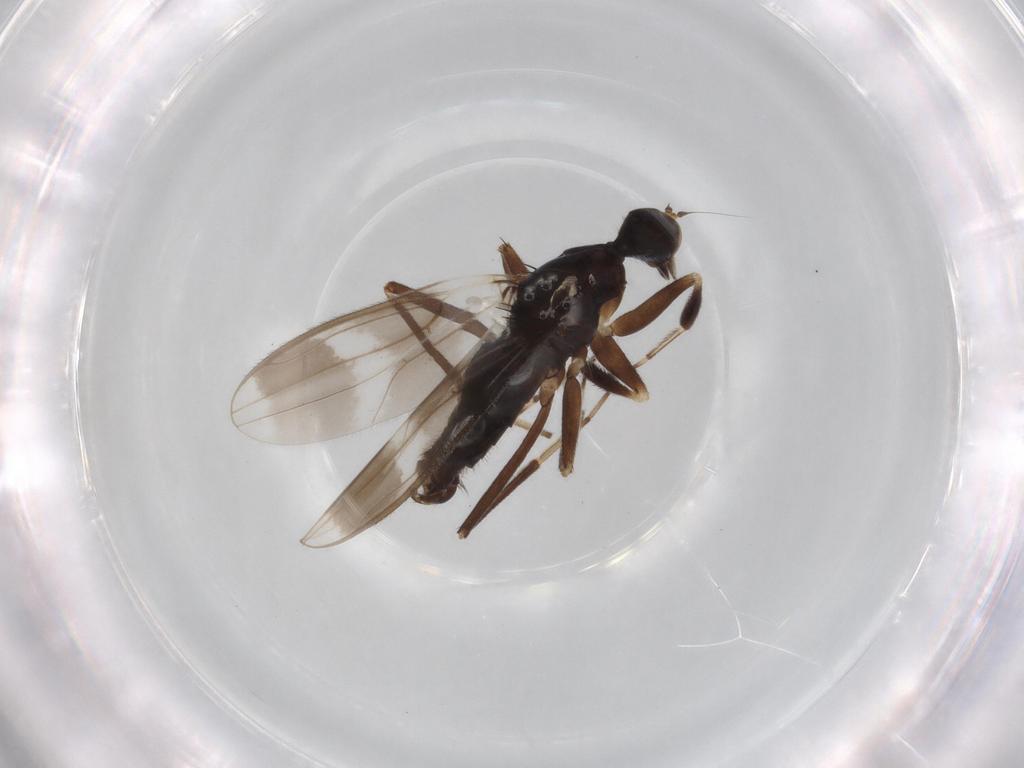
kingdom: Animalia
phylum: Arthropoda
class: Insecta
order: Diptera
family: Hybotidae
